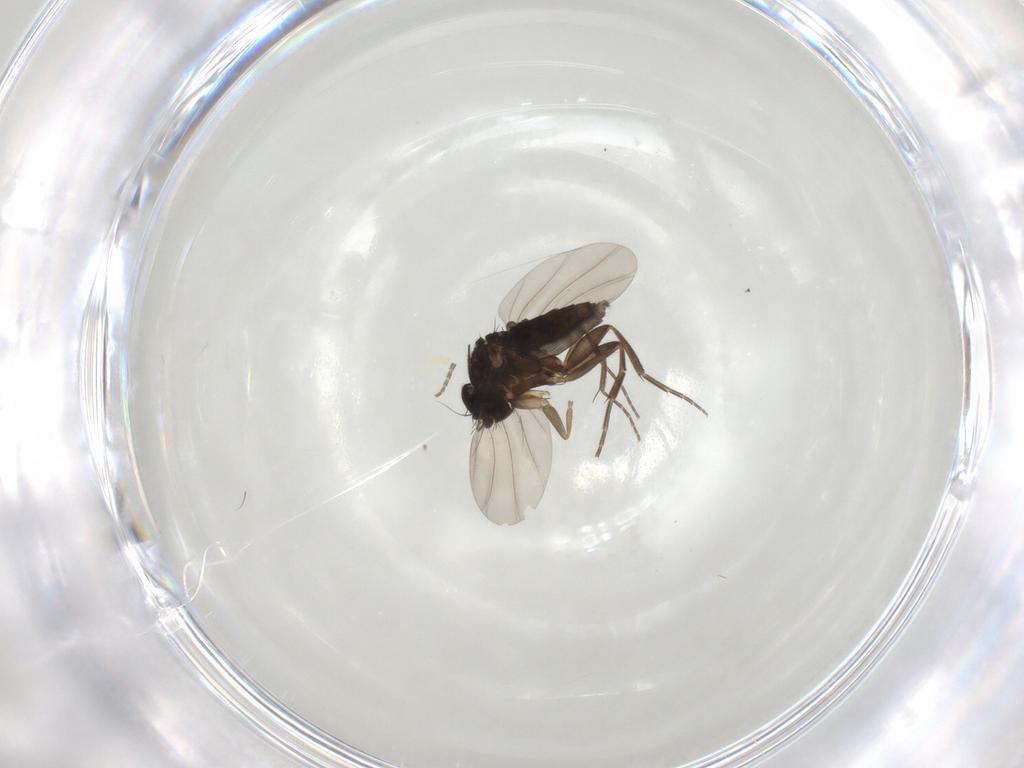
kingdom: Animalia
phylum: Arthropoda
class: Insecta
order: Diptera
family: Phoridae
